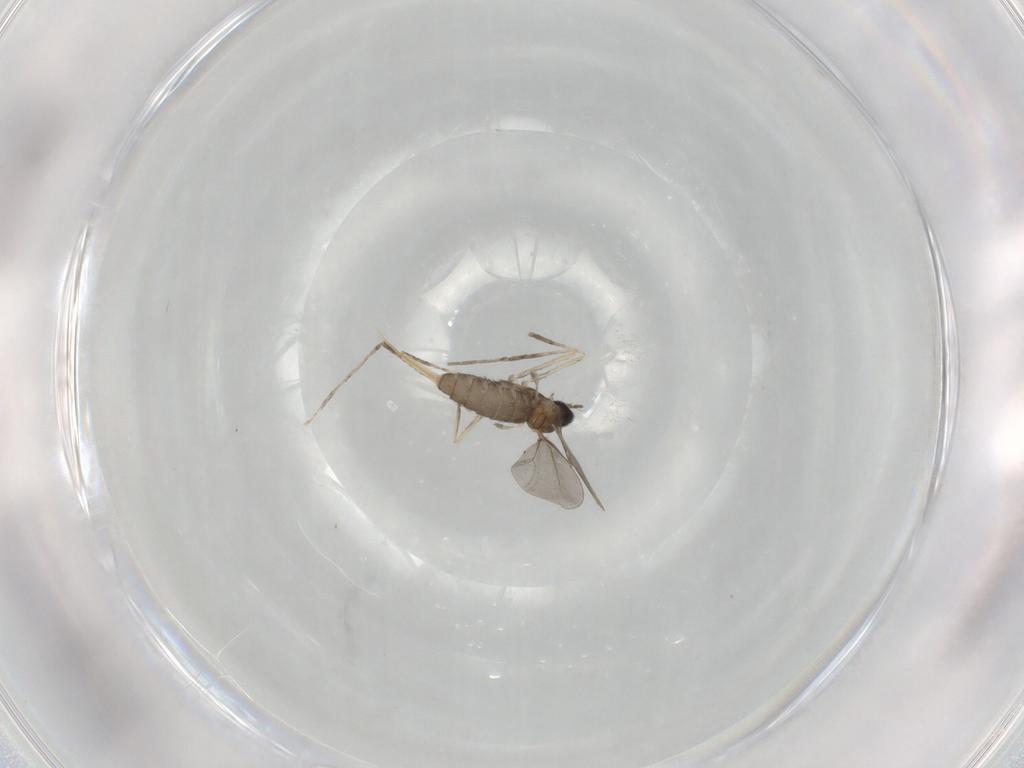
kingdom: Animalia
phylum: Arthropoda
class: Insecta
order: Diptera
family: Cecidomyiidae
